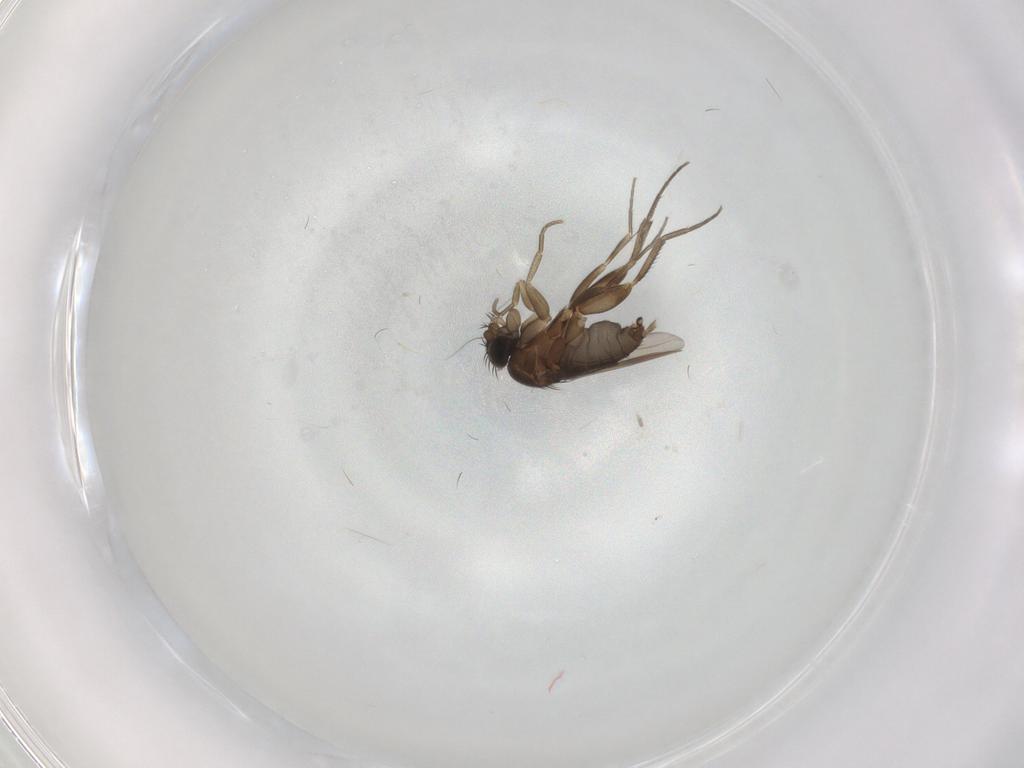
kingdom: Animalia
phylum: Arthropoda
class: Insecta
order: Diptera
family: Phoridae
